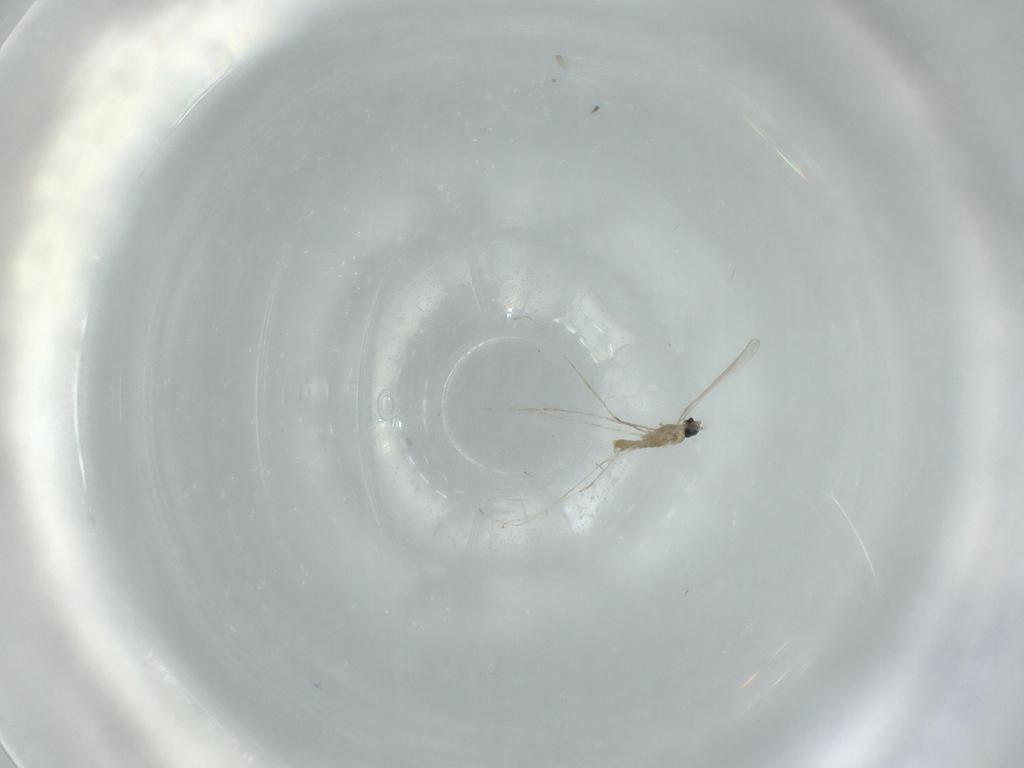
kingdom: Animalia
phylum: Arthropoda
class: Insecta
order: Diptera
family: Cecidomyiidae
